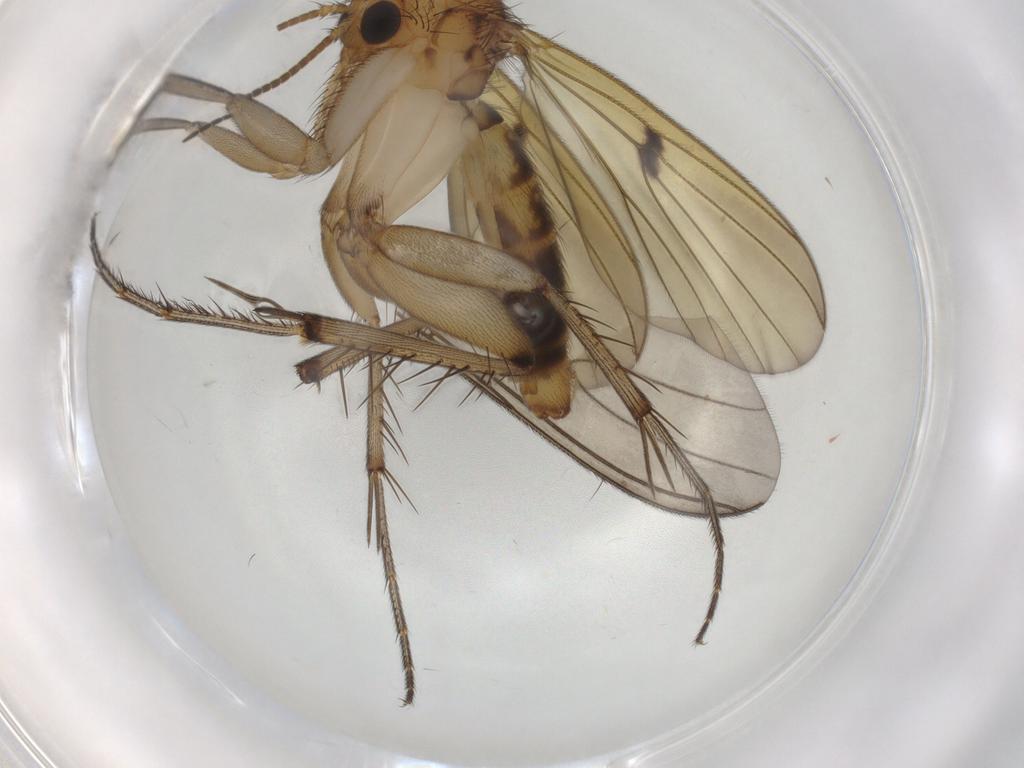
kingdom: Animalia
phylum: Arthropoda
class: Insecta
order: Diptera
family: Mycetophilidae
